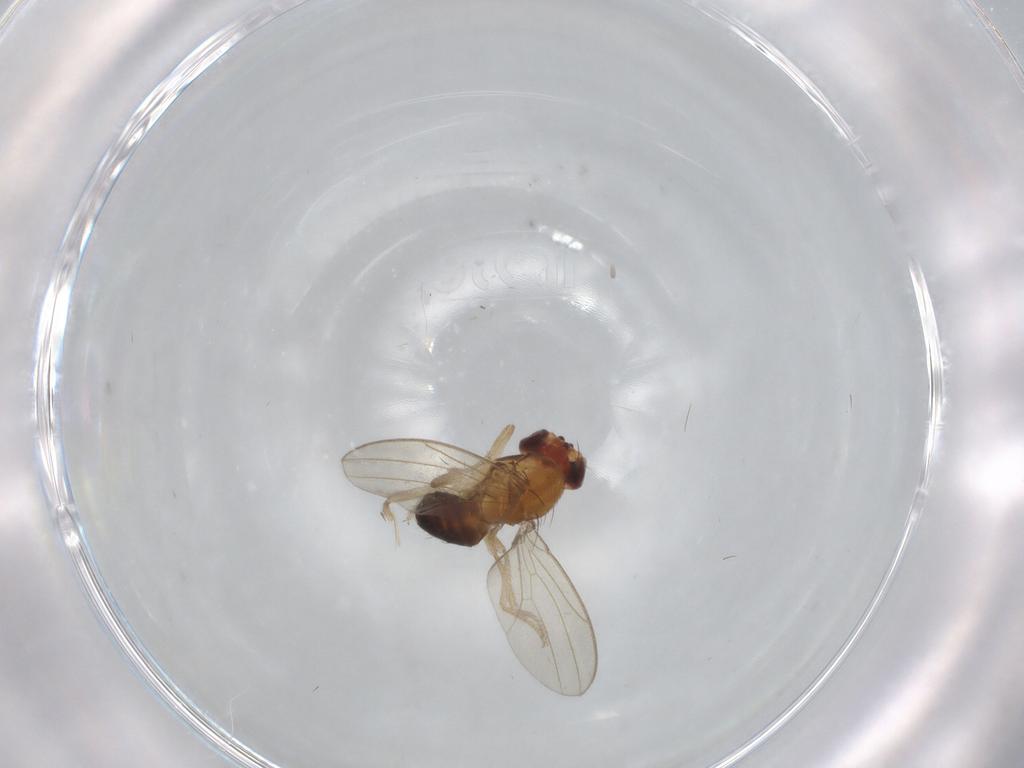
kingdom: Animalia
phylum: Arthropoda
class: Insecta
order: Diptera
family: Drosophilidae
